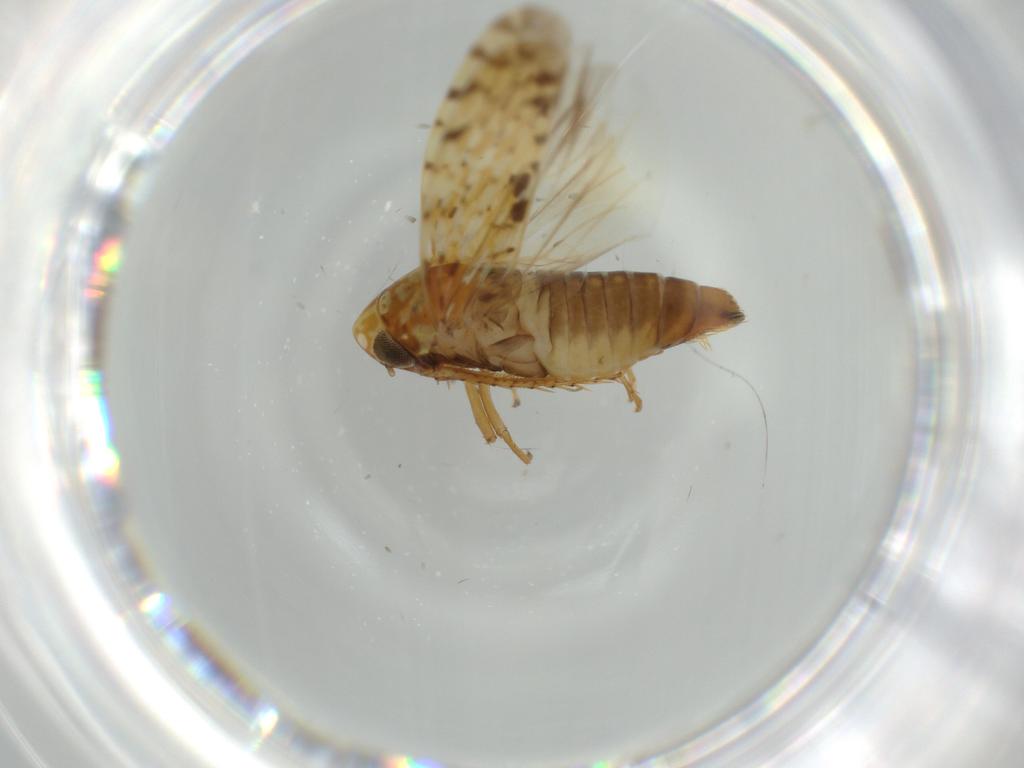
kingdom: Animalia
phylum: Arthropoda
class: Insecta
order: Hemiptera
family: Cicadellidae
